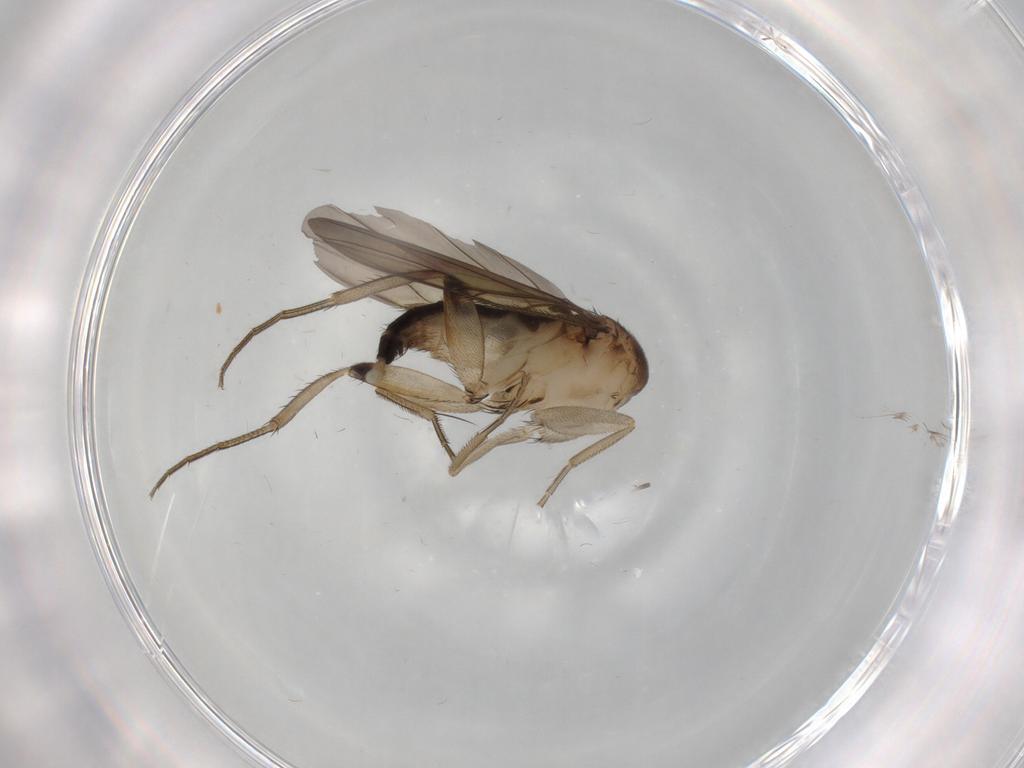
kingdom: Animalia
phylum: Arthropoda
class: Insecta
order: Diptera
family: Phoridae
